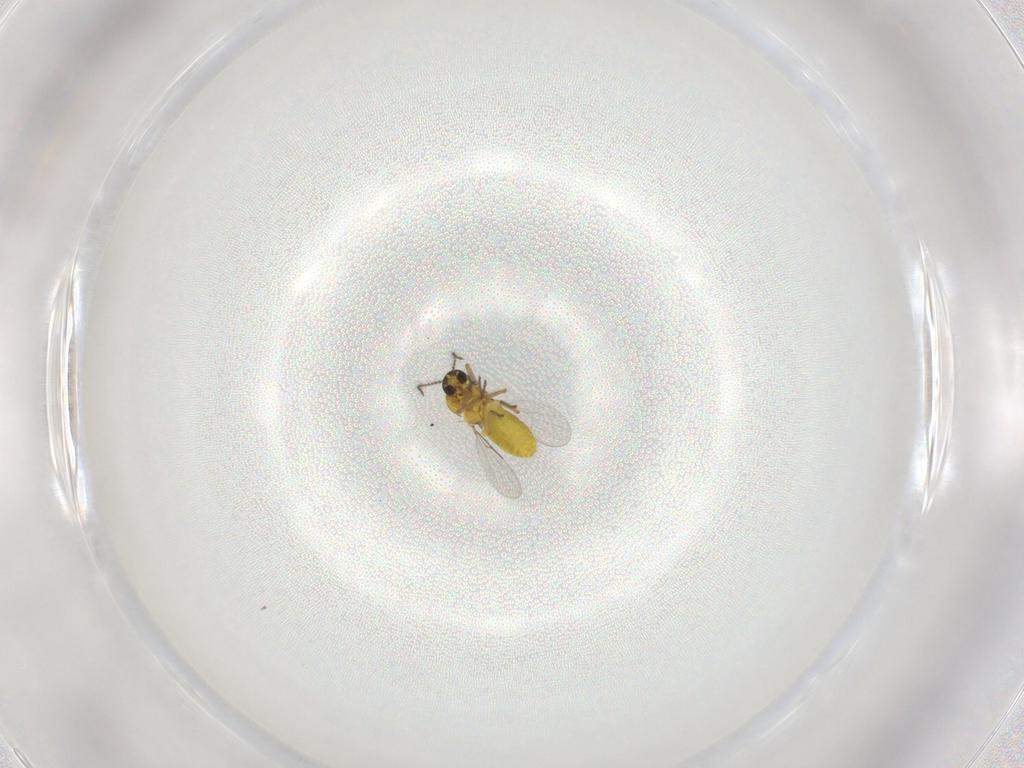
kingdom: Animalia
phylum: Arthropoda
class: Insecta
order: Diptera
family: Cecidomyiidae
